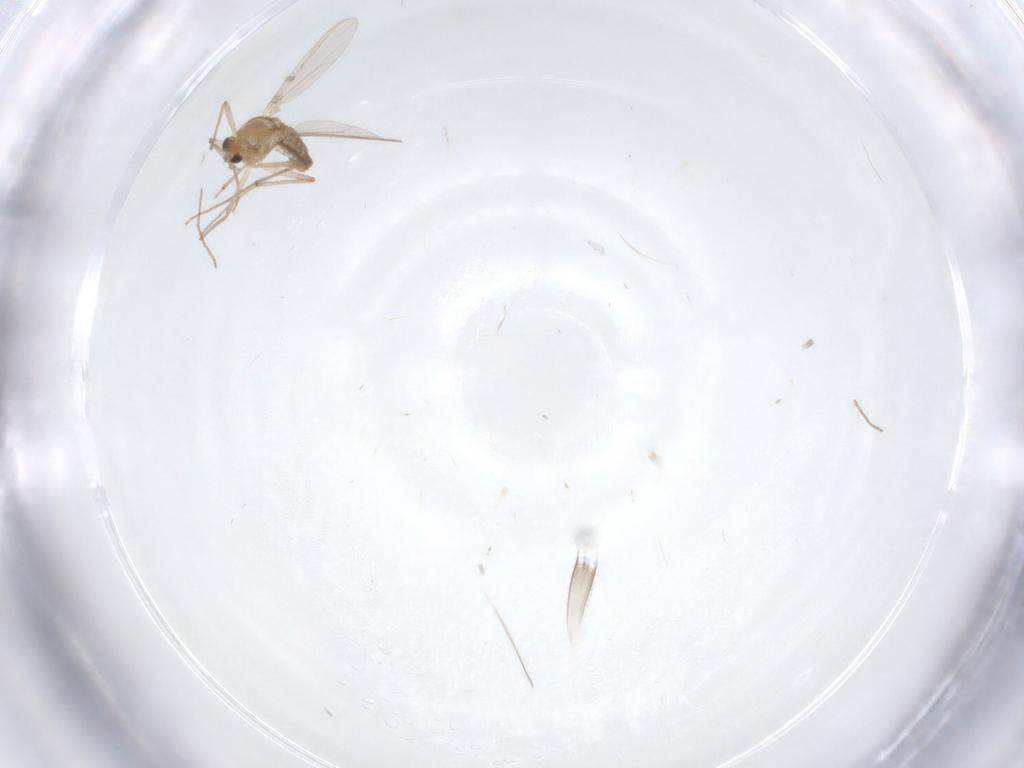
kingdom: Animalia
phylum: Arthropoda
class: Insecta
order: Diptera
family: Chironomidae
